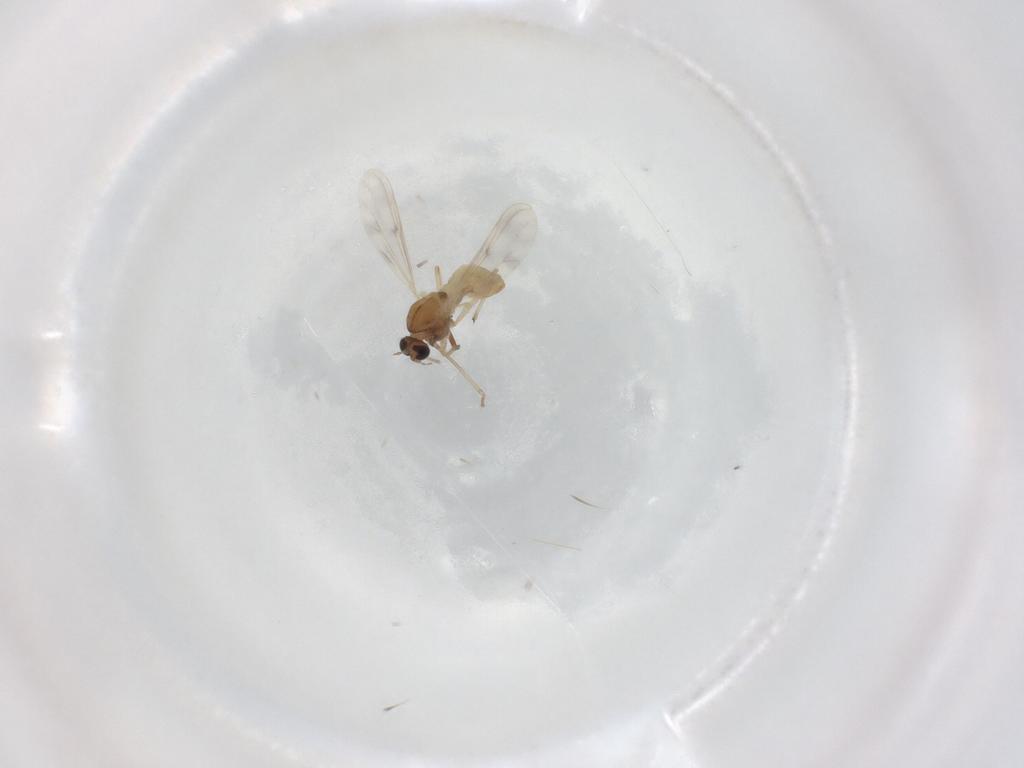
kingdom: Animalia
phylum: Arthropoda
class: Insecta
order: Diptera
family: Chironomidae
